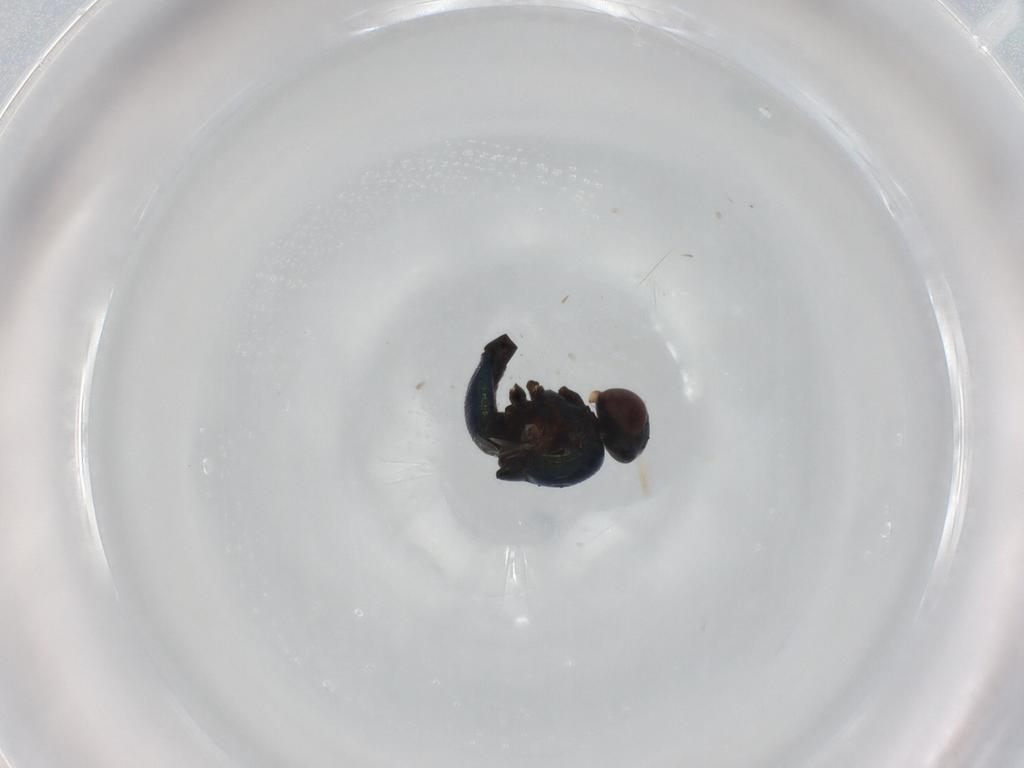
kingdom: Animalia
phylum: Arthropoda
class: Insecta
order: Diptera
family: Agromyzidae
